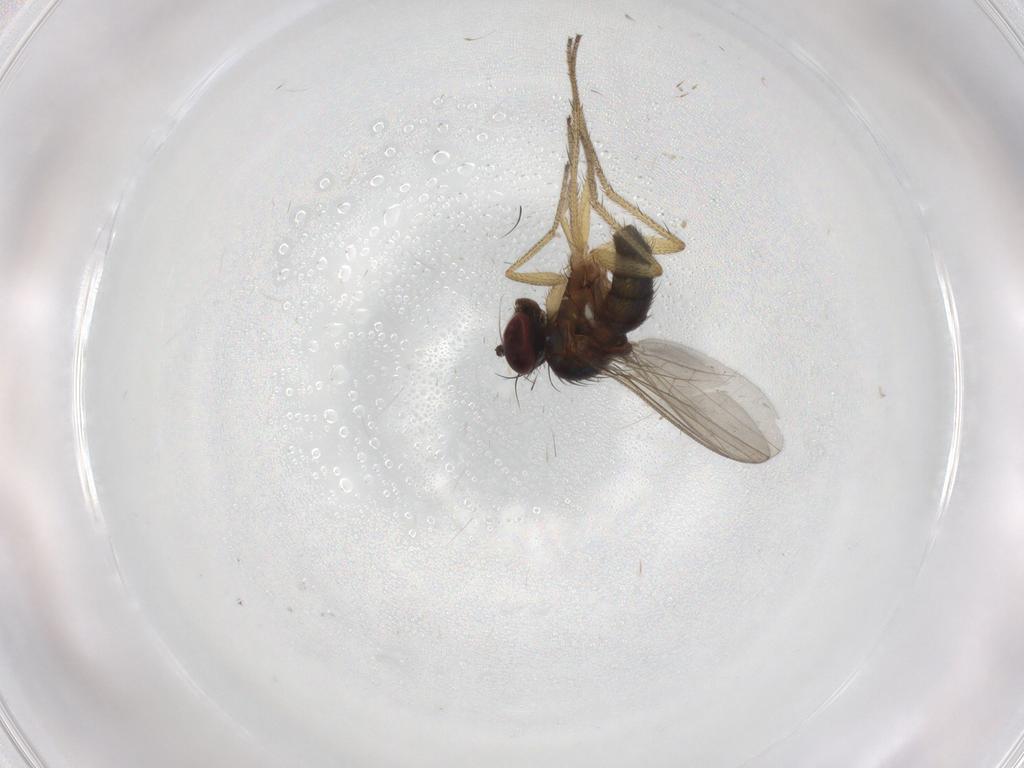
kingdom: Animalia
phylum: Arthropoda
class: Insecta
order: Diptera
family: Dolichopodidae
